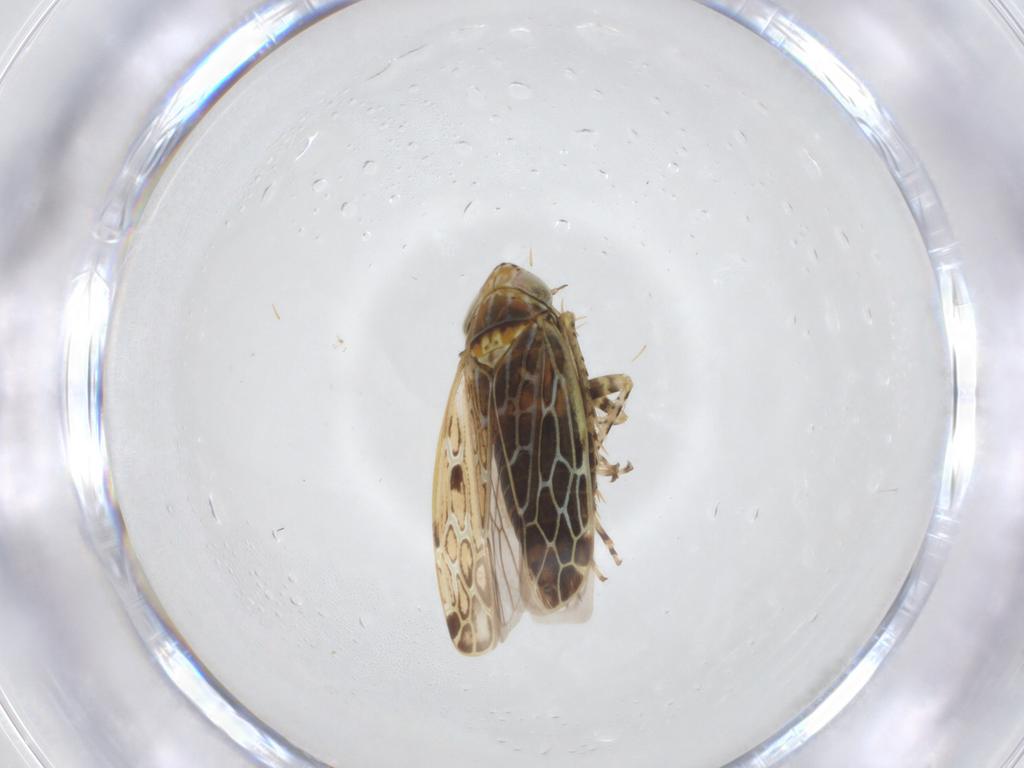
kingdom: Animalia
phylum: Arthropoda
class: Insecta
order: Hemiptera
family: Cicadellidae
